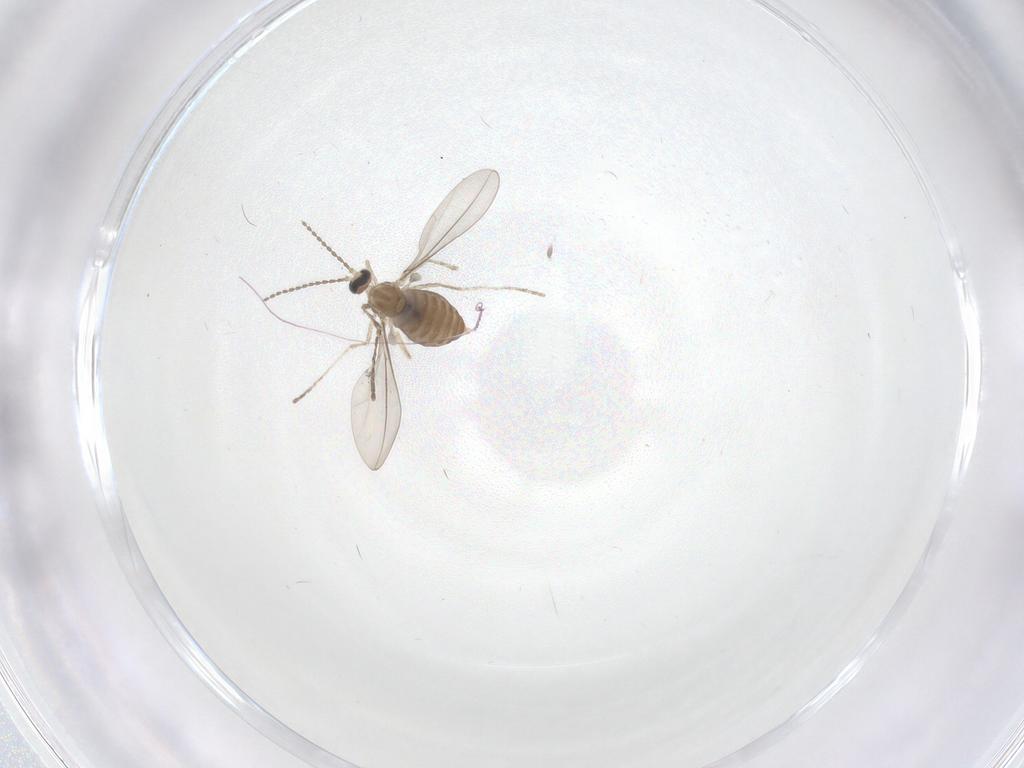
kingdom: Animalia
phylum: Arthropoda
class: Insecta
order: Diptera
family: Cecidomyiidae
